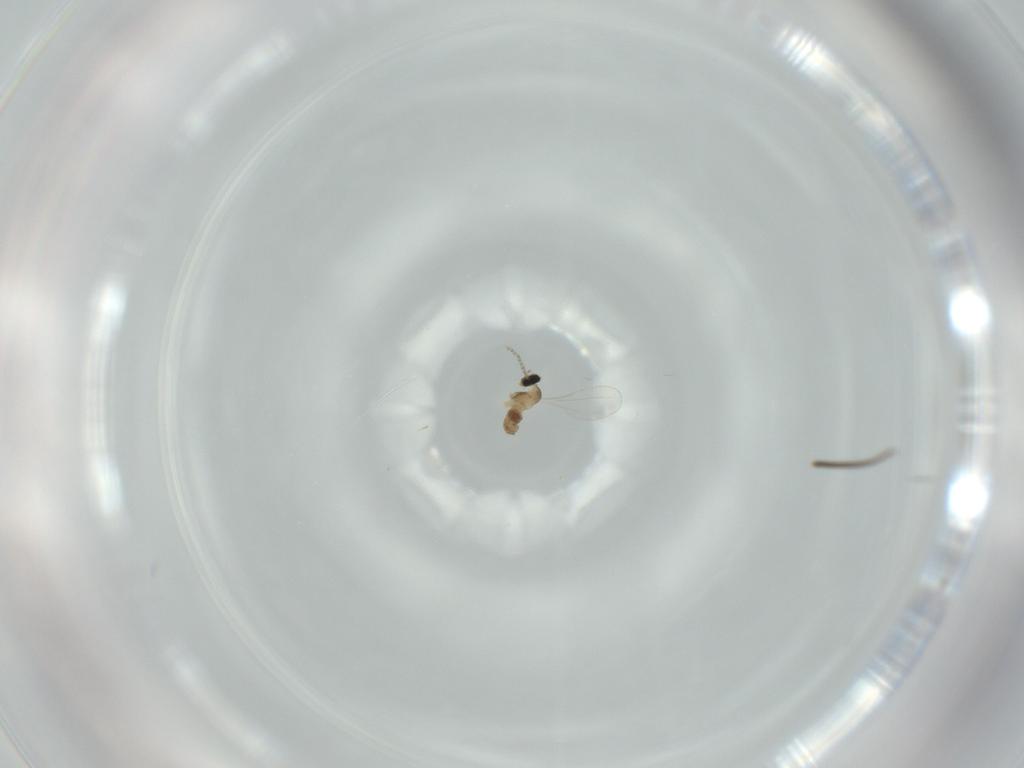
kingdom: Animalia
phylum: Arthropoda
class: Insecta
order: Diptera
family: Cecidomyiidae
